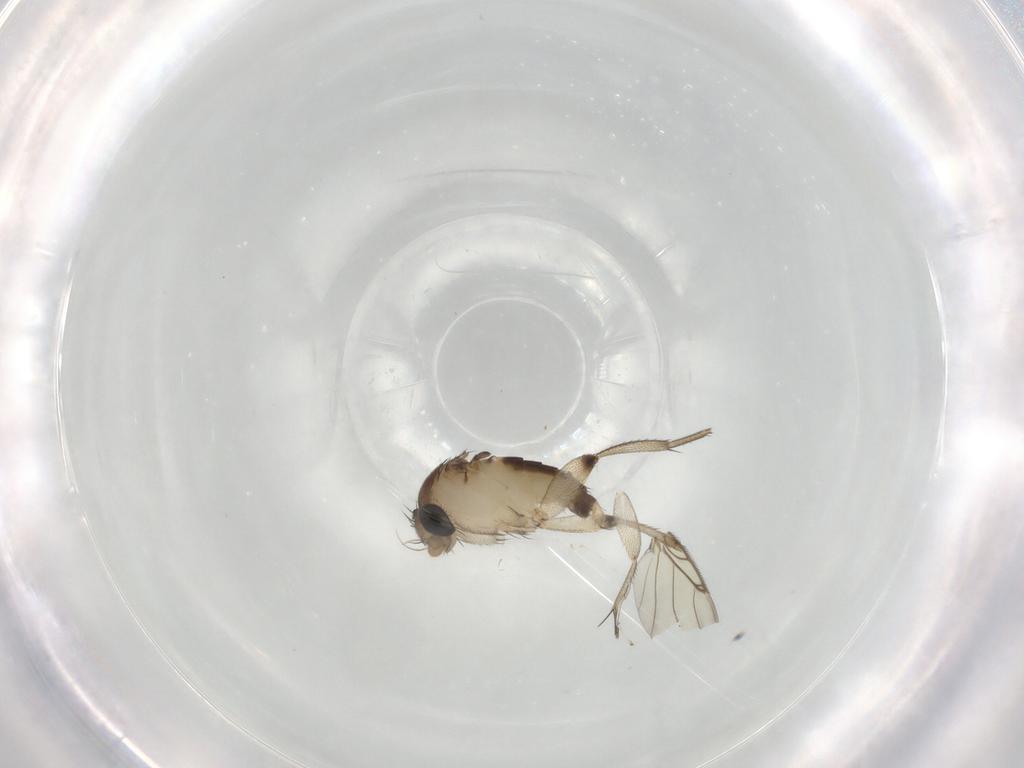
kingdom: Animalia
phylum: Arthropoda
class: Insecta
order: Diptera
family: Phoridae
